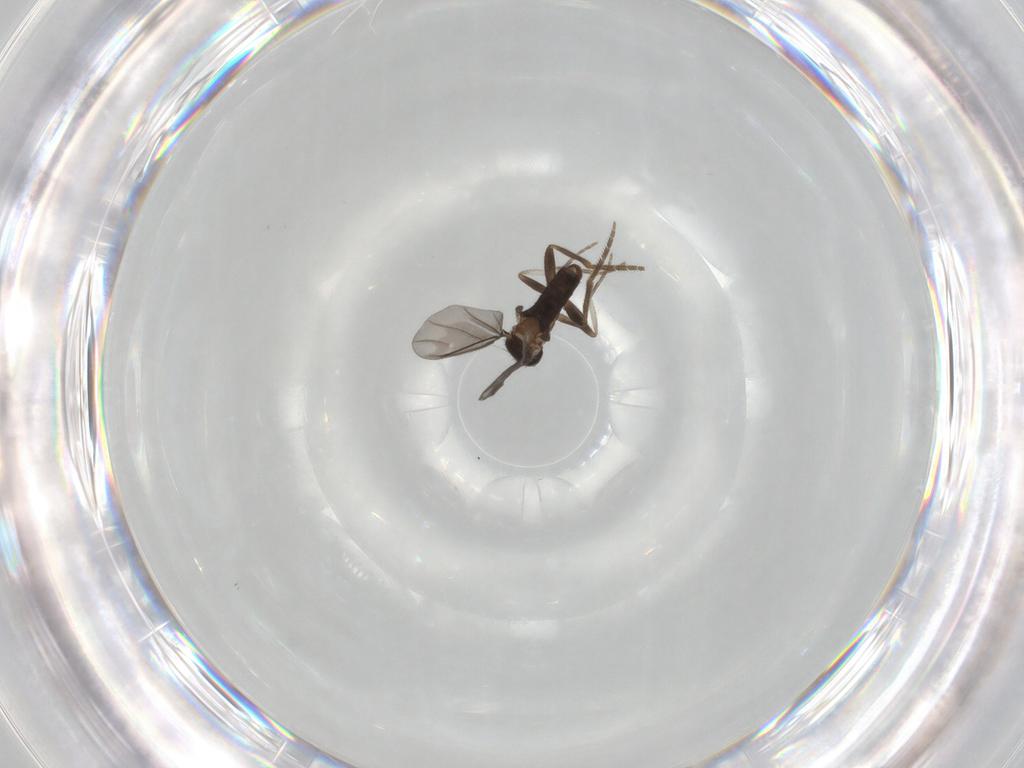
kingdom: Animalia
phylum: Arthropoda
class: Insecta
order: Diptera
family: Phoridae
